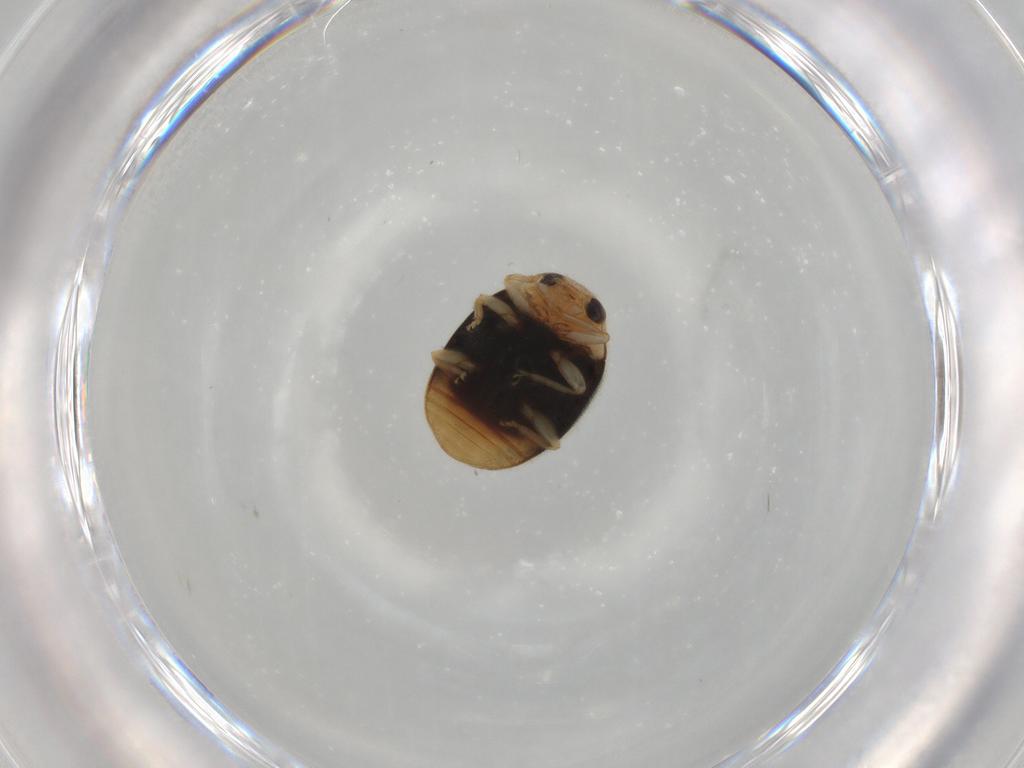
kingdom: Animalia
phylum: Arthropoda
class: Insecta
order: Coleoptera
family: Coccinellidae
